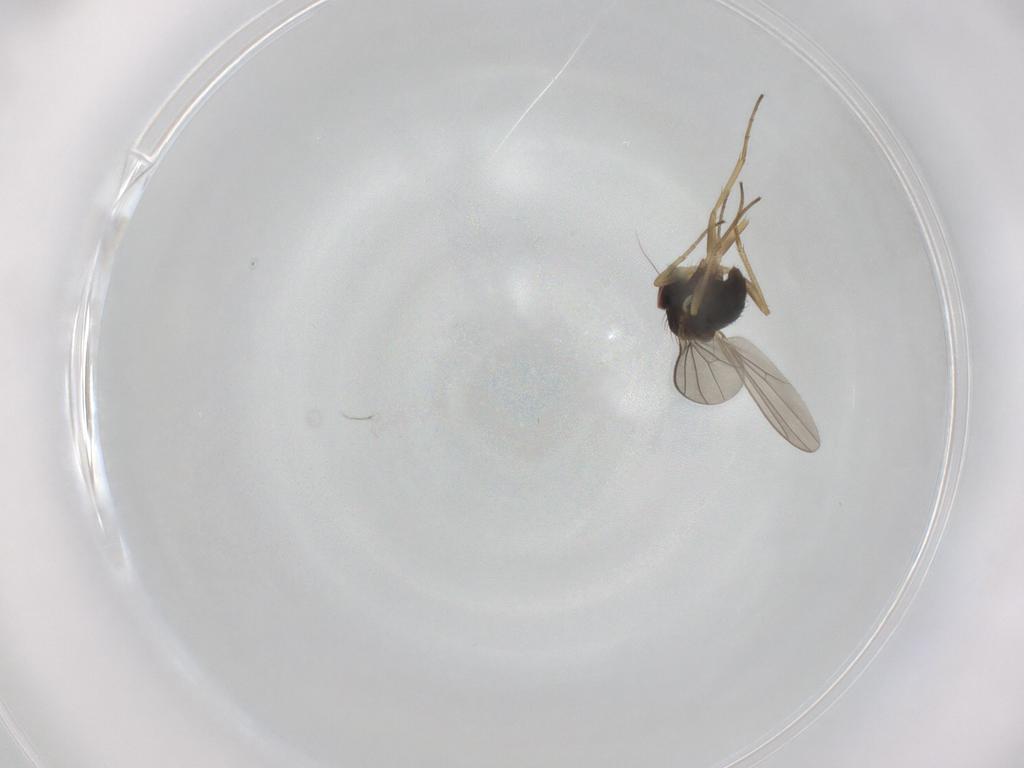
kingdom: Animalia
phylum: Arthropoda
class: Insecta
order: Diptera
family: Dolichopodidae
